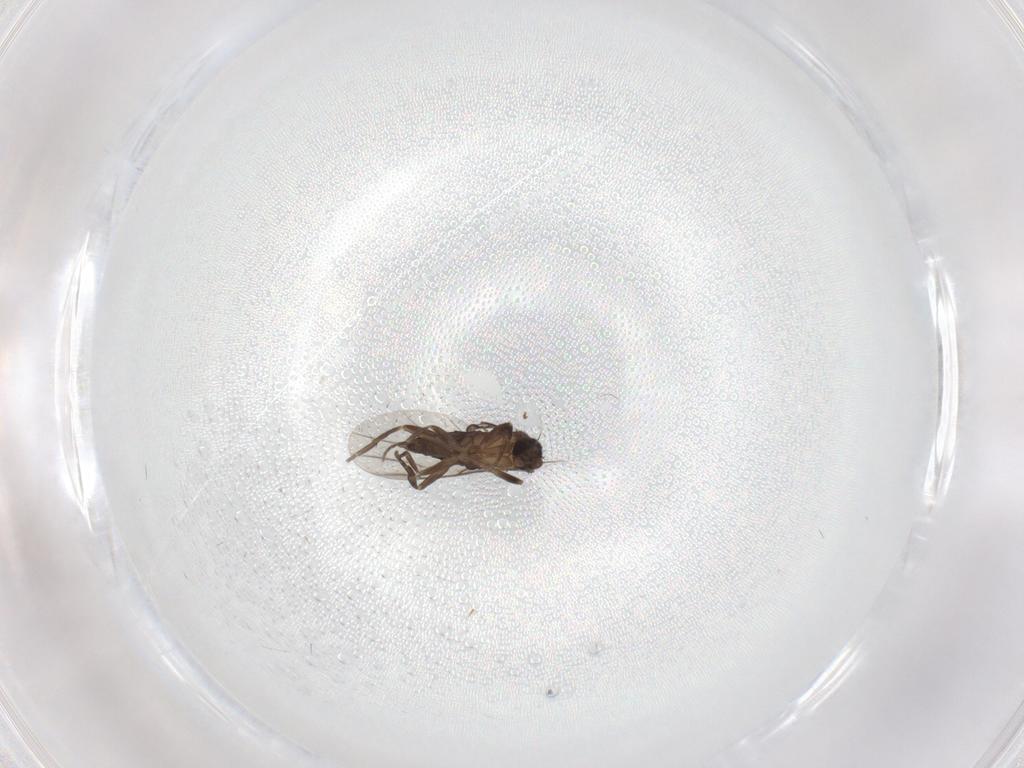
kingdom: Animalia
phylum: Arthropoda
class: Insecta
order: Diptera
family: Phoridae
